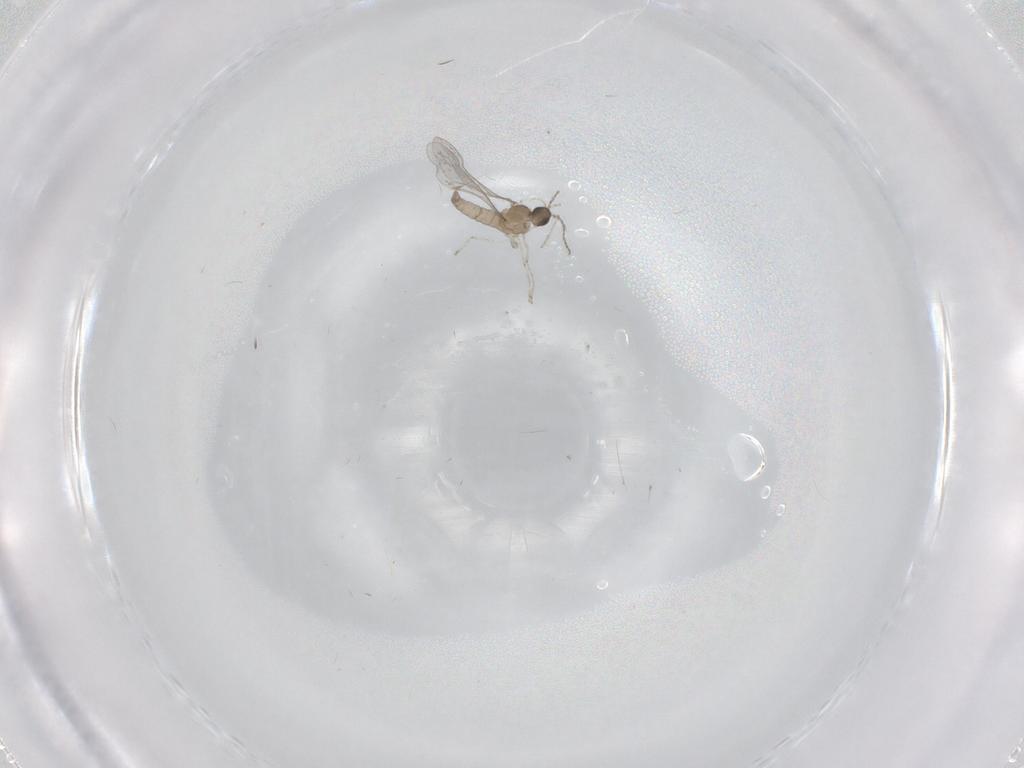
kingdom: Animalia
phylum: Arthropoda
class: Insecta
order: Diptera
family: Cecidomyiidae
